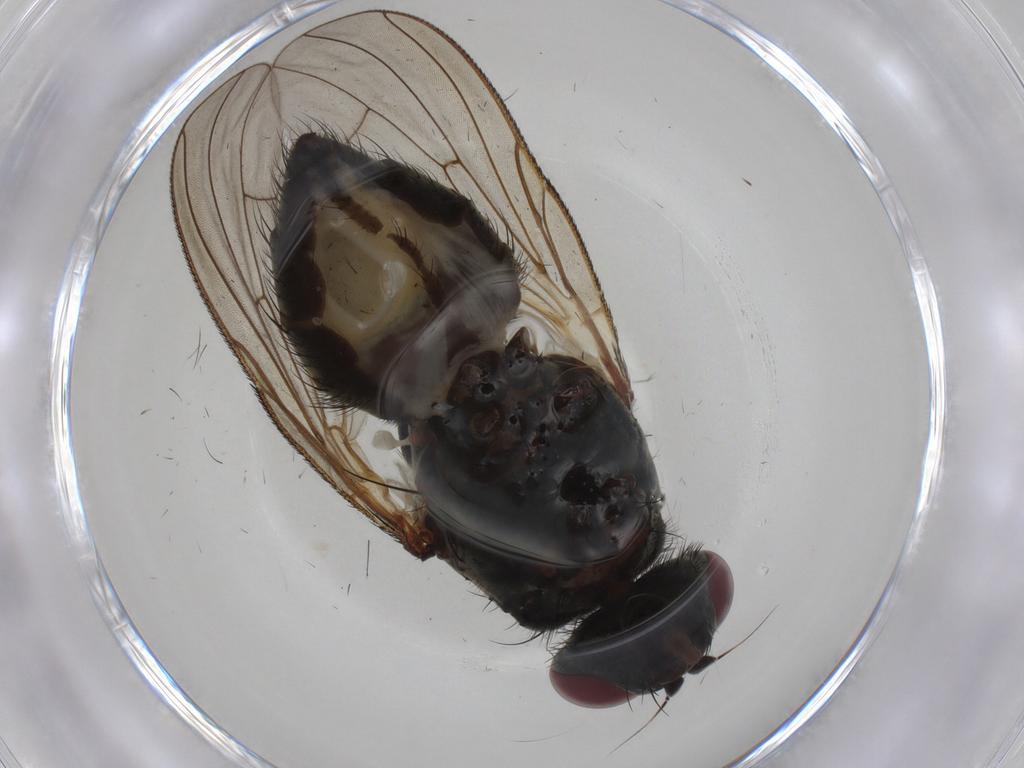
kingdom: Animalia
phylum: Arthropoda
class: Insecta
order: Diptera
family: Anthomyiidae
